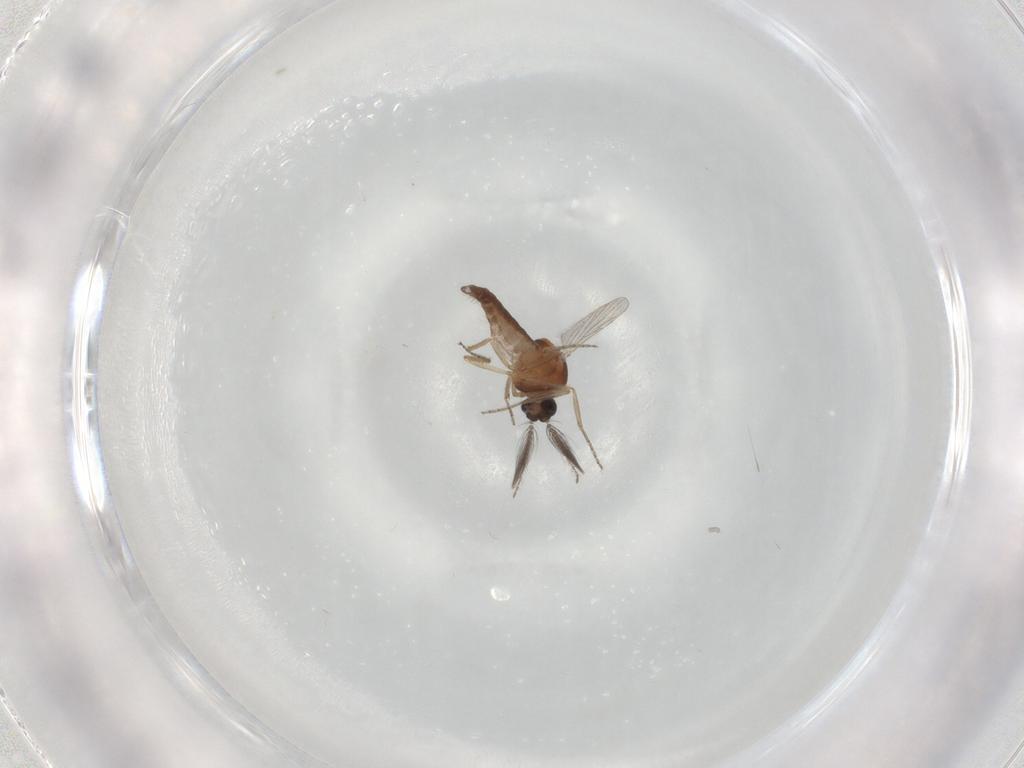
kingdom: Animalia
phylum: Arthropoda
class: Insecta
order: Diptera
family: Ceratopogonidae
